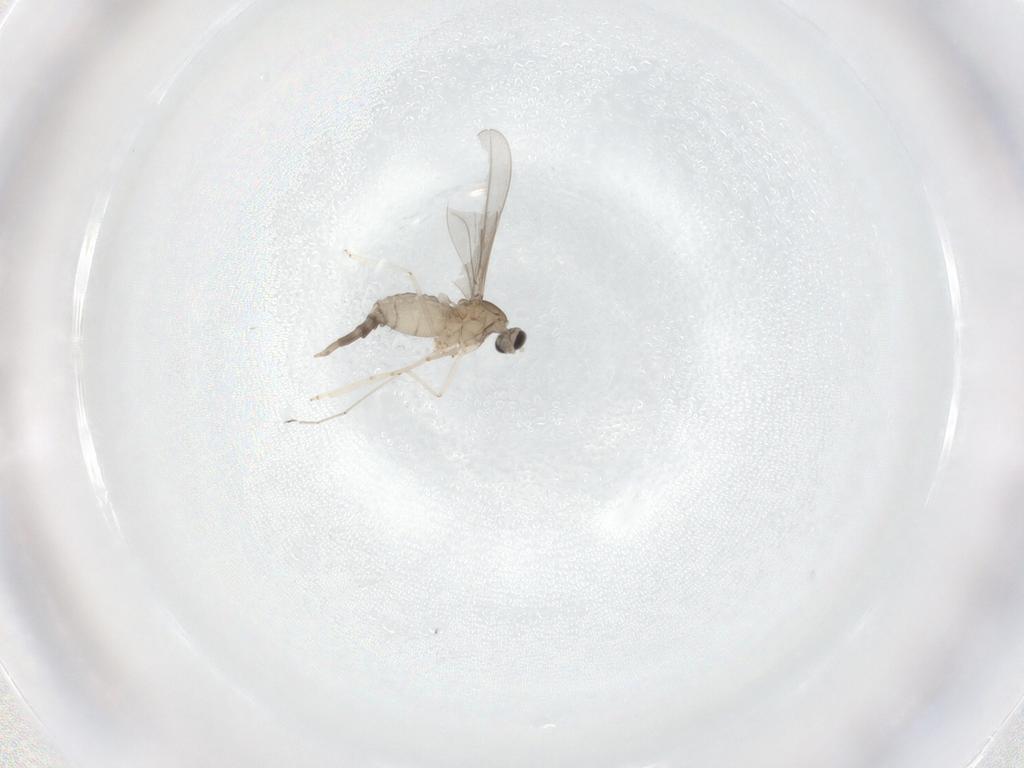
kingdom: Animalia
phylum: Arthropoda
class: Insecta
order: Diptera
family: Cecidomyiidae
